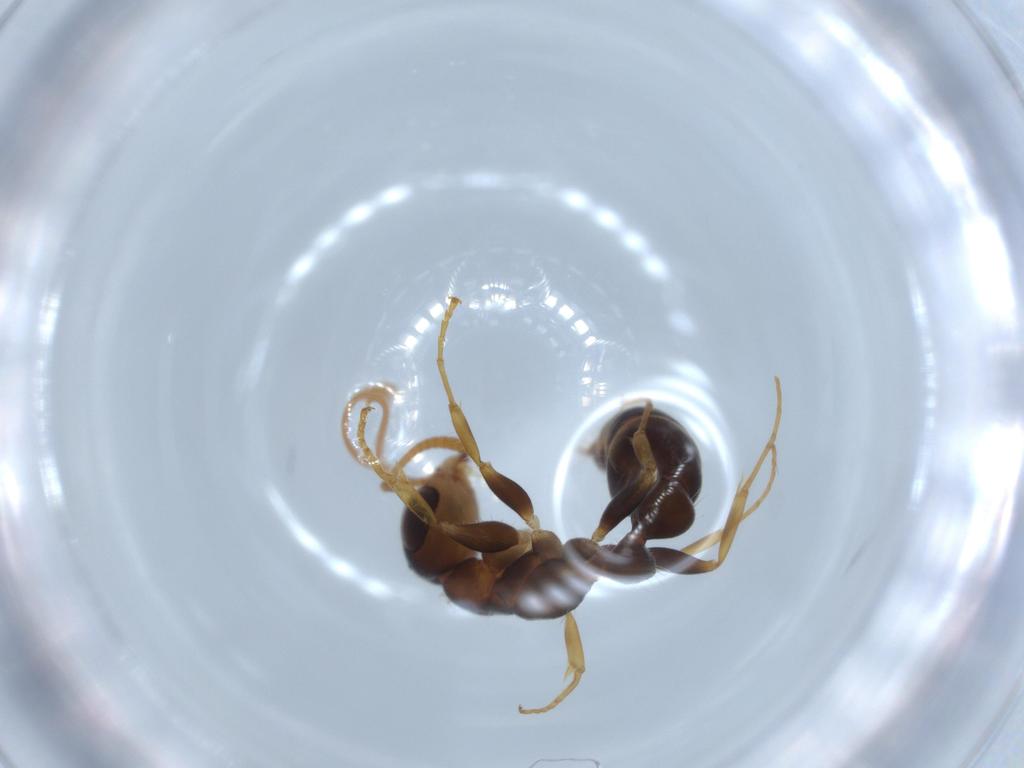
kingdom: Animalia
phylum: Arthropoda
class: Insecta
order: Hymenoptera
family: Formicidae
